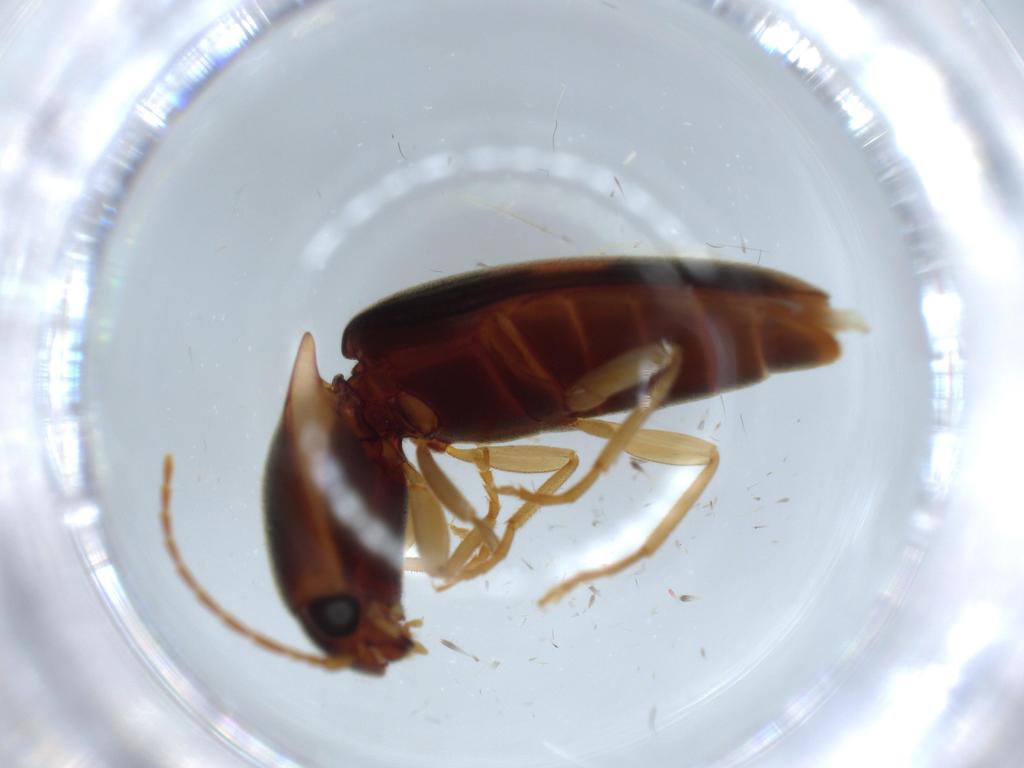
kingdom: Animalia
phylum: Arthropoda
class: Insecta
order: Coleoptera
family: Elateridae
